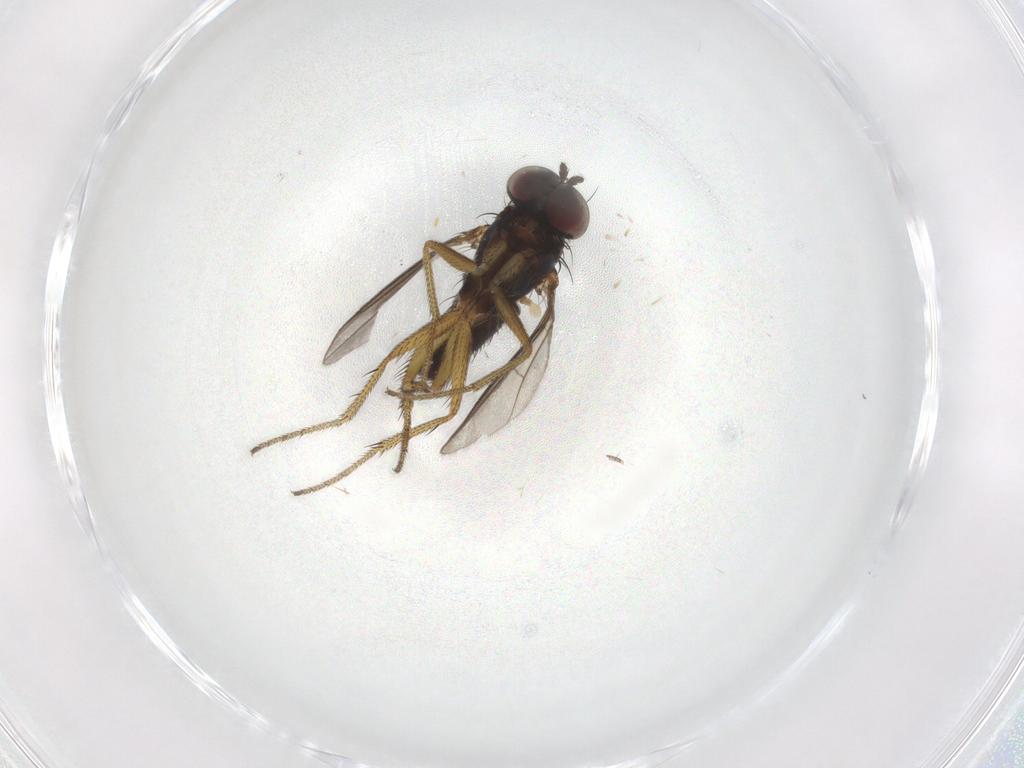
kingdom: Animalia
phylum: Arthropoda
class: Insecta
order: Diptera
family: Dolichopodidae
